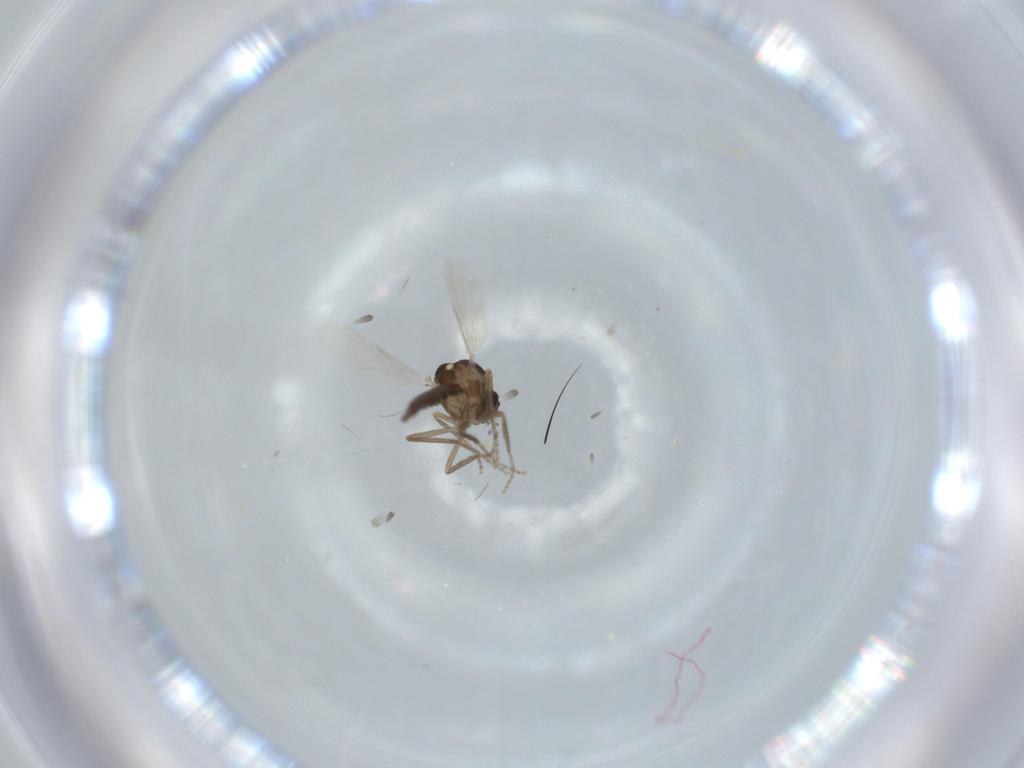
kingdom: Animalia
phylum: Arthropoda
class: Insecta
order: Diptera
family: Ceratopogonidae
